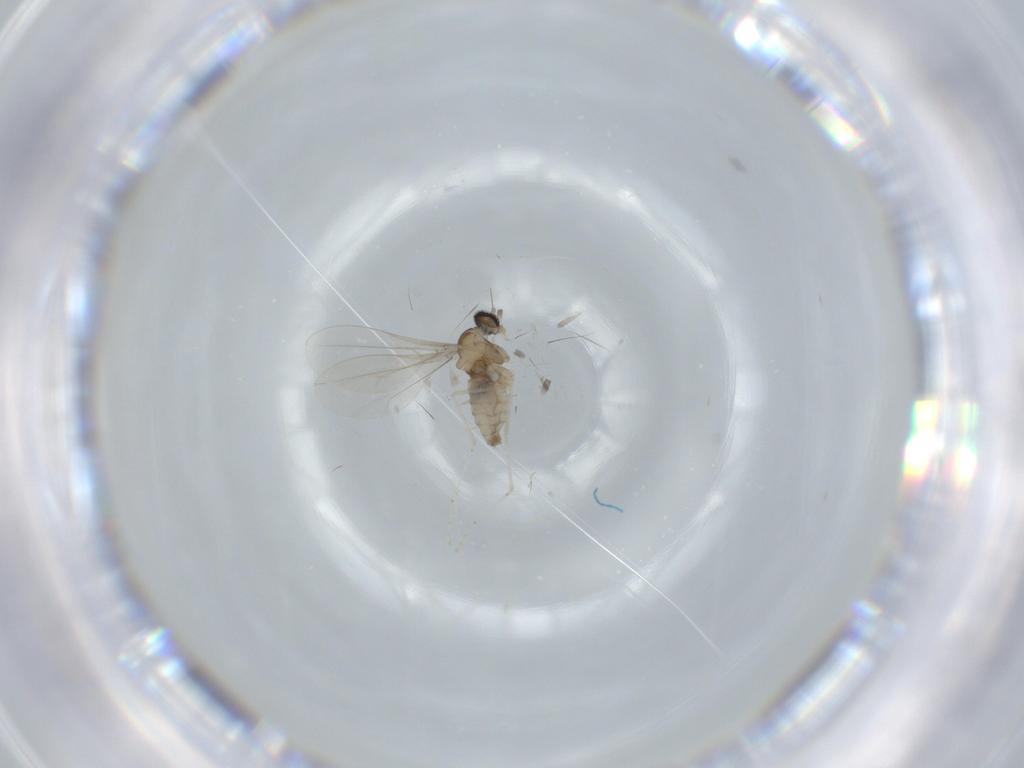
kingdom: Animalia
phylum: Arthropoda
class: Insecta
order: Diptera
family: Cecidomyiidae
